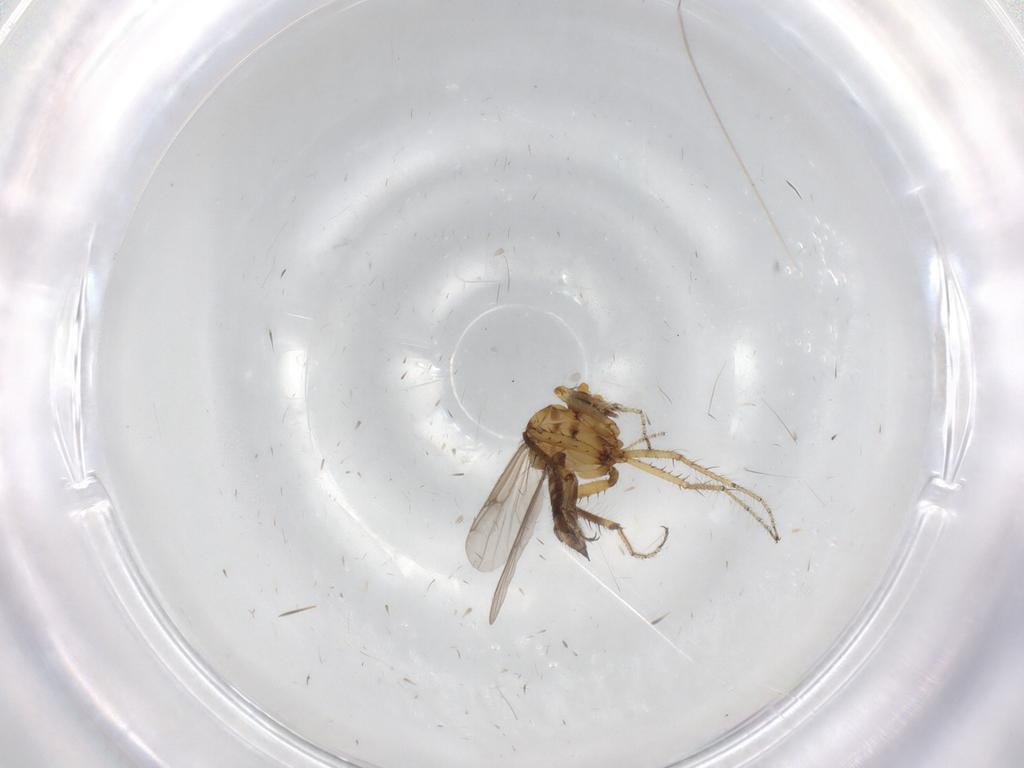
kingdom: Animalia
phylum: Arthropoda
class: Insecta
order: Diptera
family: Ceratopogonidae
